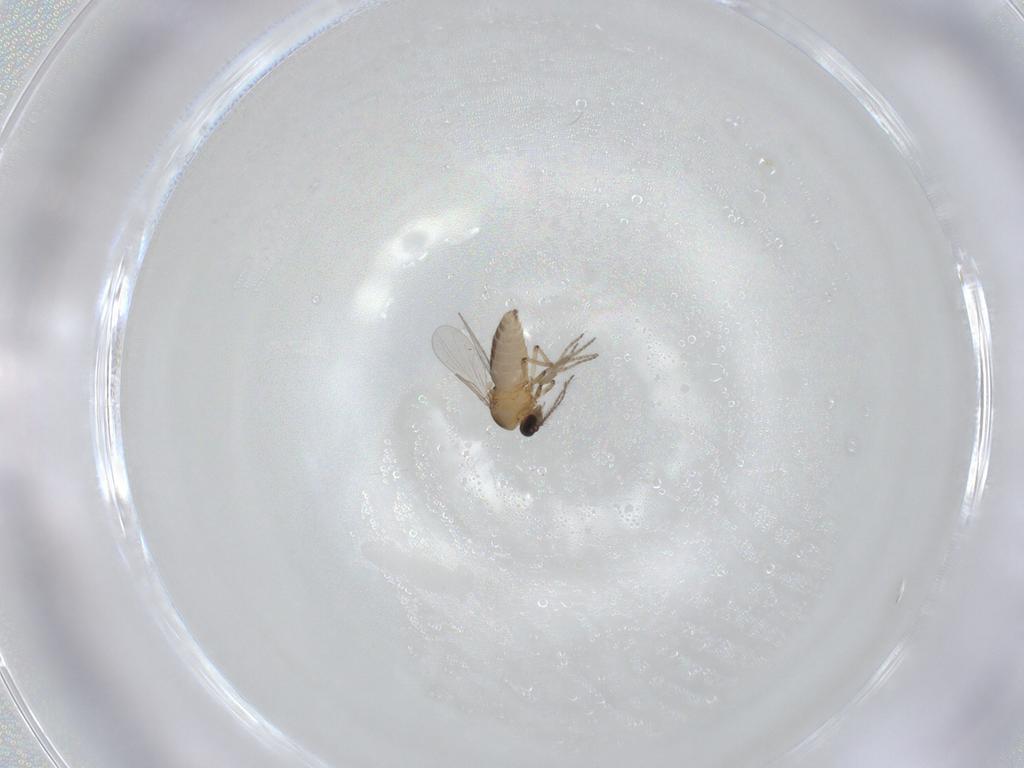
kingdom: Animalia
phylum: Arthropoda
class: Insecta
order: Diptera
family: Ceratopogonidae
